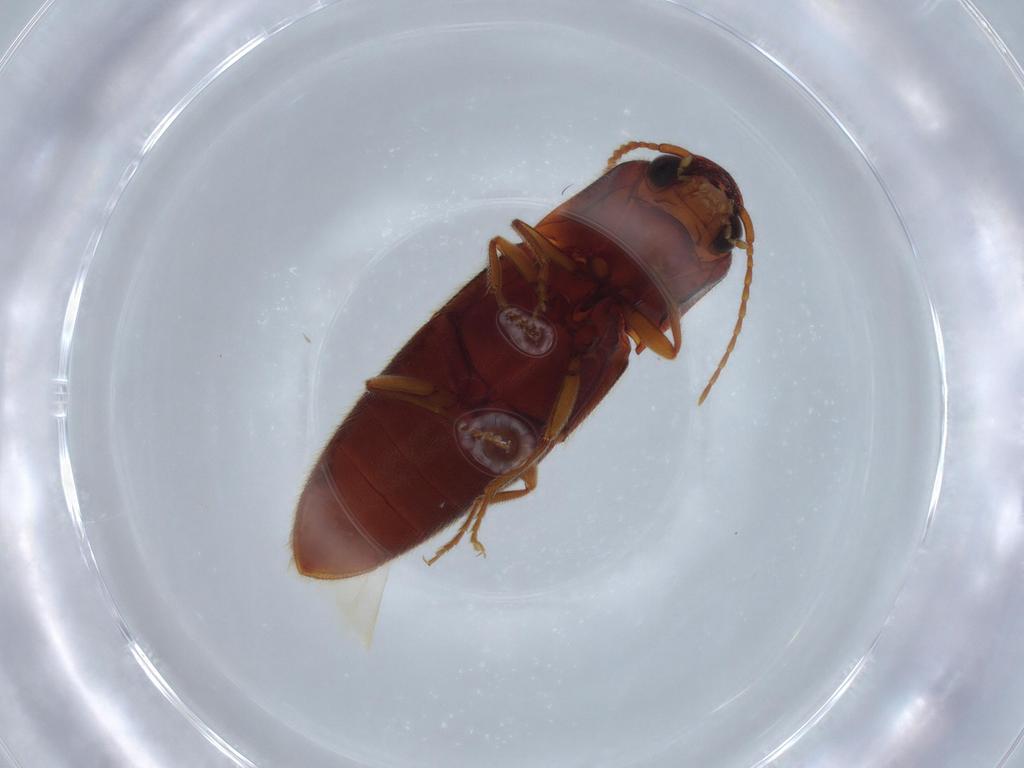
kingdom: Animalia
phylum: Arthropoda
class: Insecta
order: Coleoptera
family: Elateridae
